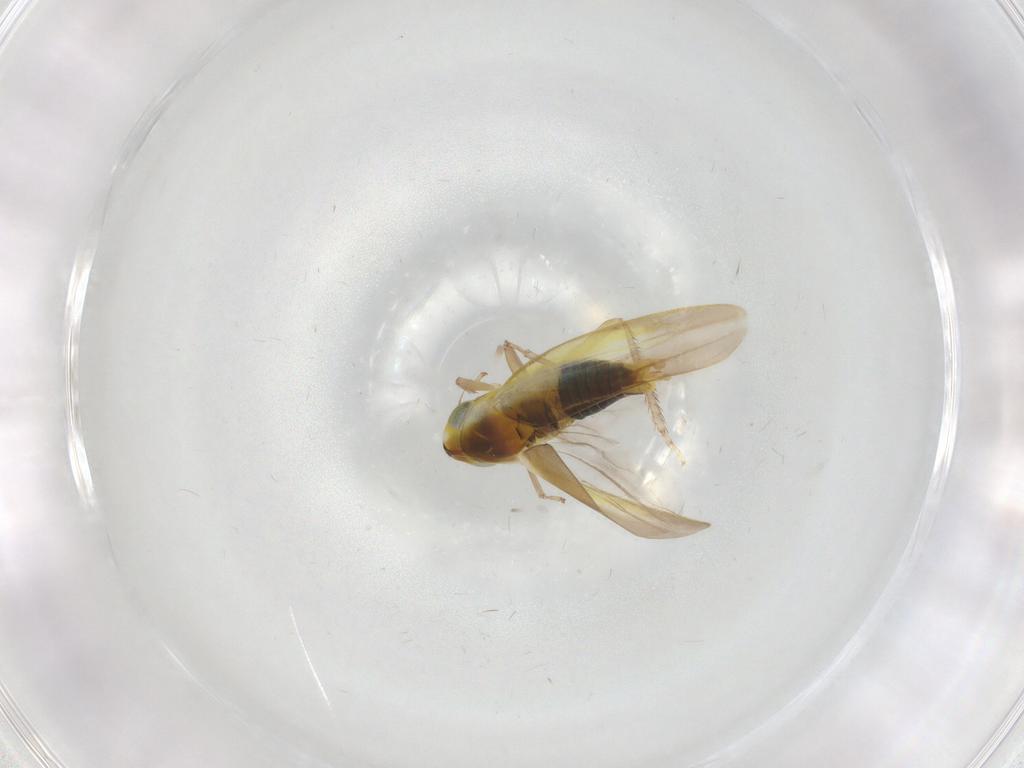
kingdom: Animalia
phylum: Arthropoda
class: Insecta
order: Hemiptera
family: Cicadellidae
